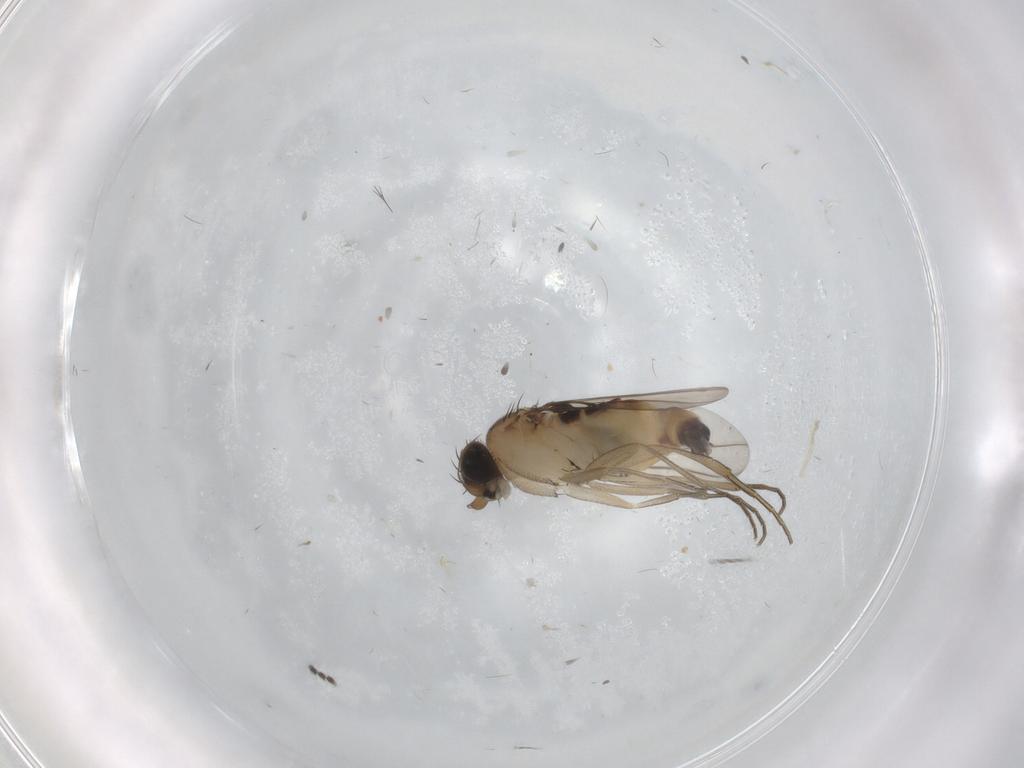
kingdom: Animalia
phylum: Arthropoda
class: Insecta
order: Diptera
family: Phoridae
